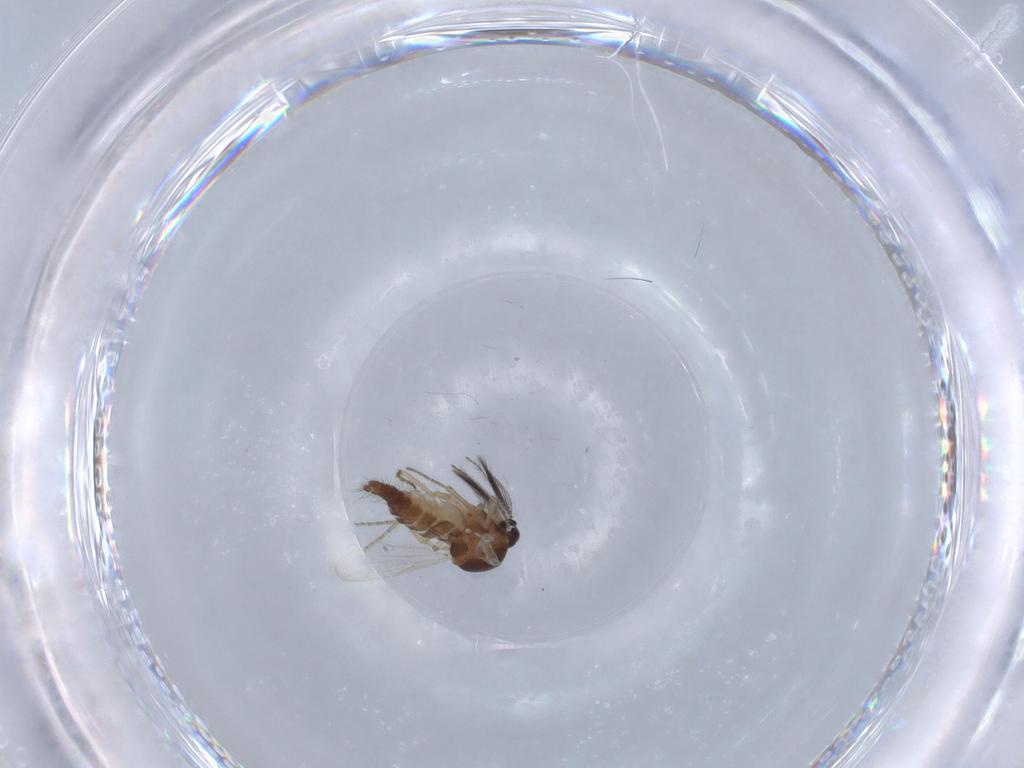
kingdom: Animalia
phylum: Arthropoda
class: Insecta
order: Diptera
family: Ceratopogonidae
